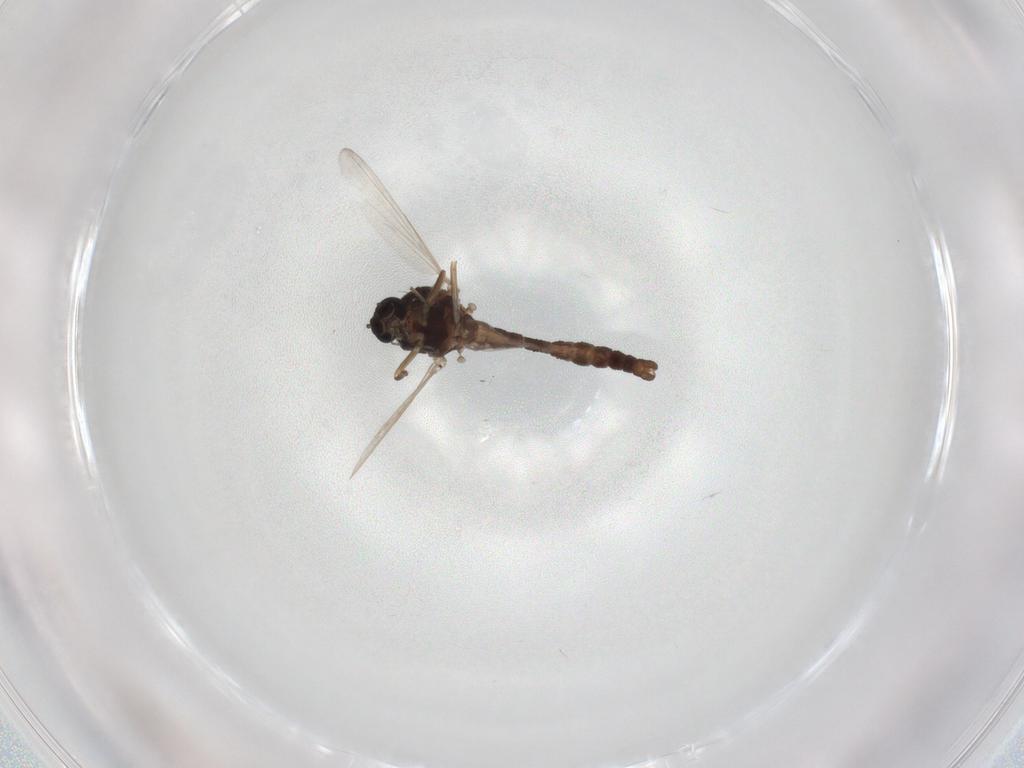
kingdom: Animalia
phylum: Arthropoda
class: Insecta
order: Diptera
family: Ceratopogonidae
